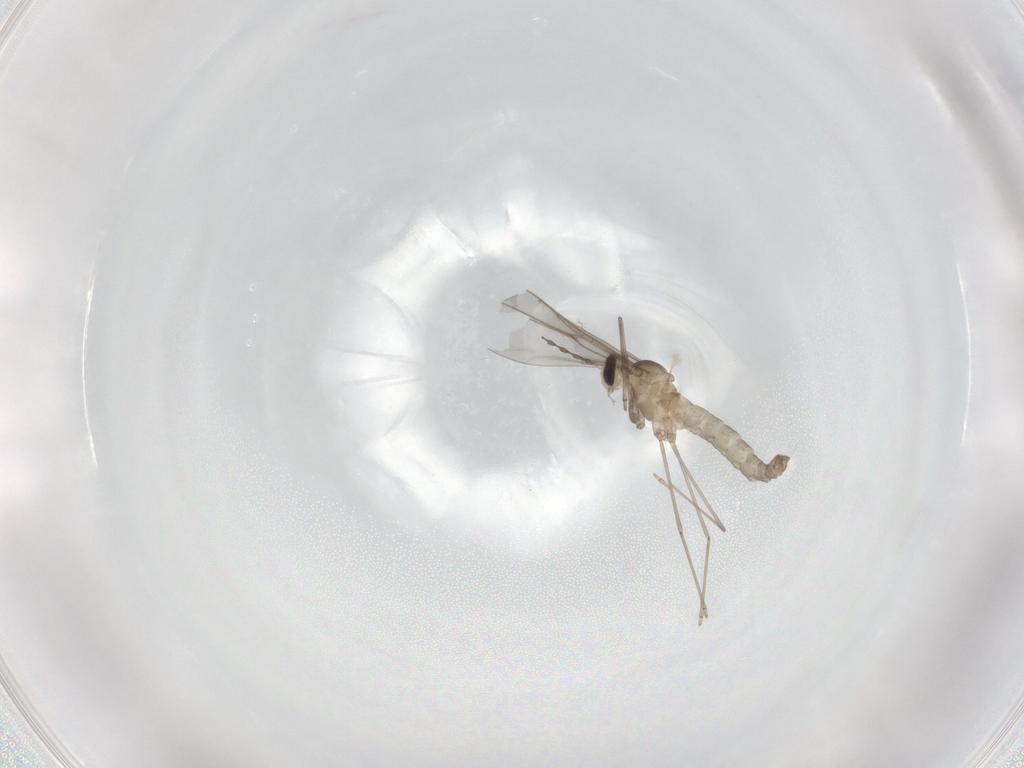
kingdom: Animalia
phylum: Arthropoda
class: Insecta
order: Diptera
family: Cecidomyiidae
